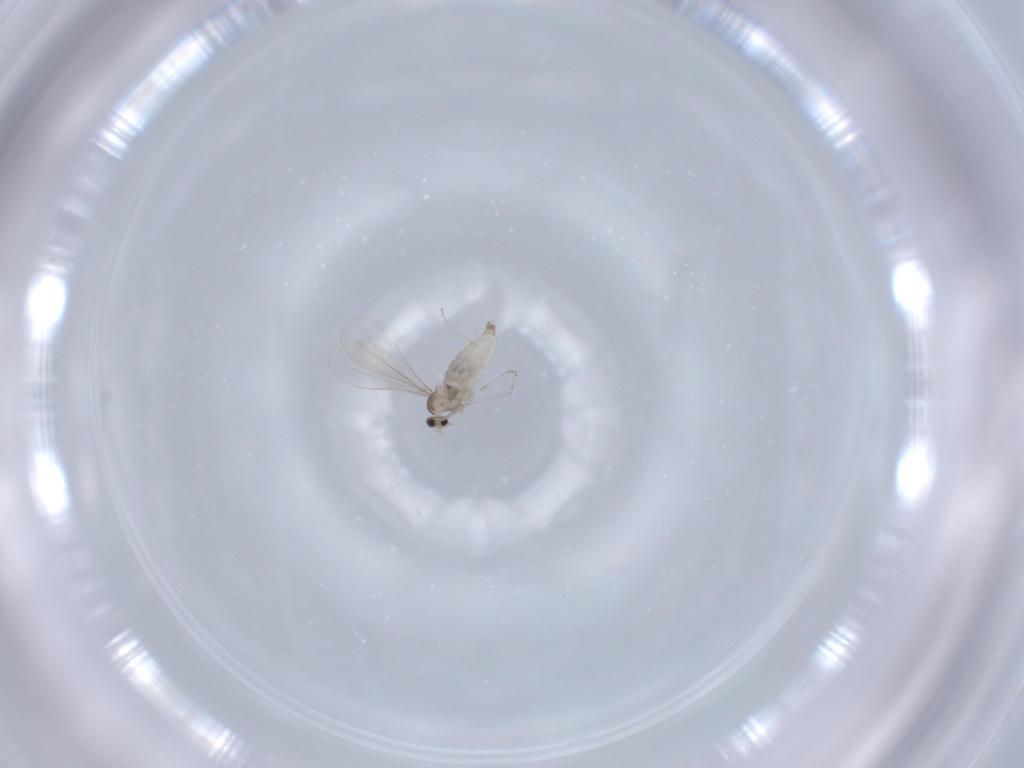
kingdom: Animalia
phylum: Arthropoda
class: Insecta
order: Diptera
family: Cecidomyiidae
